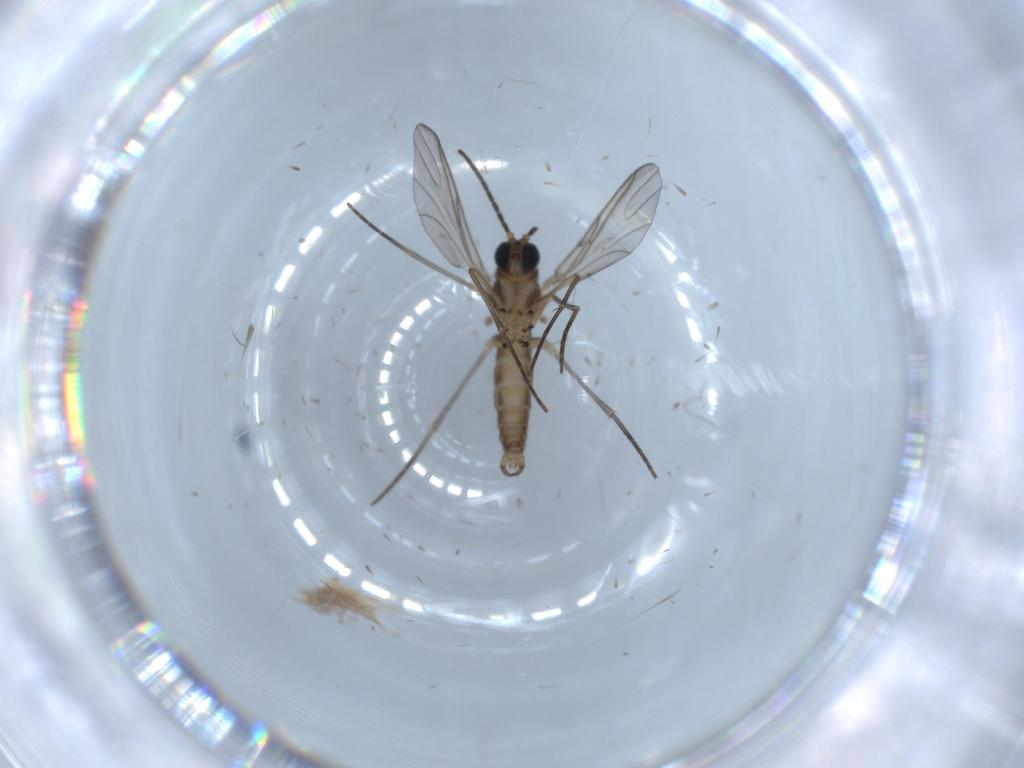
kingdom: Animalia
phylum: Arthropoda
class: Insecta
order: Diptera
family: Sciaridae
